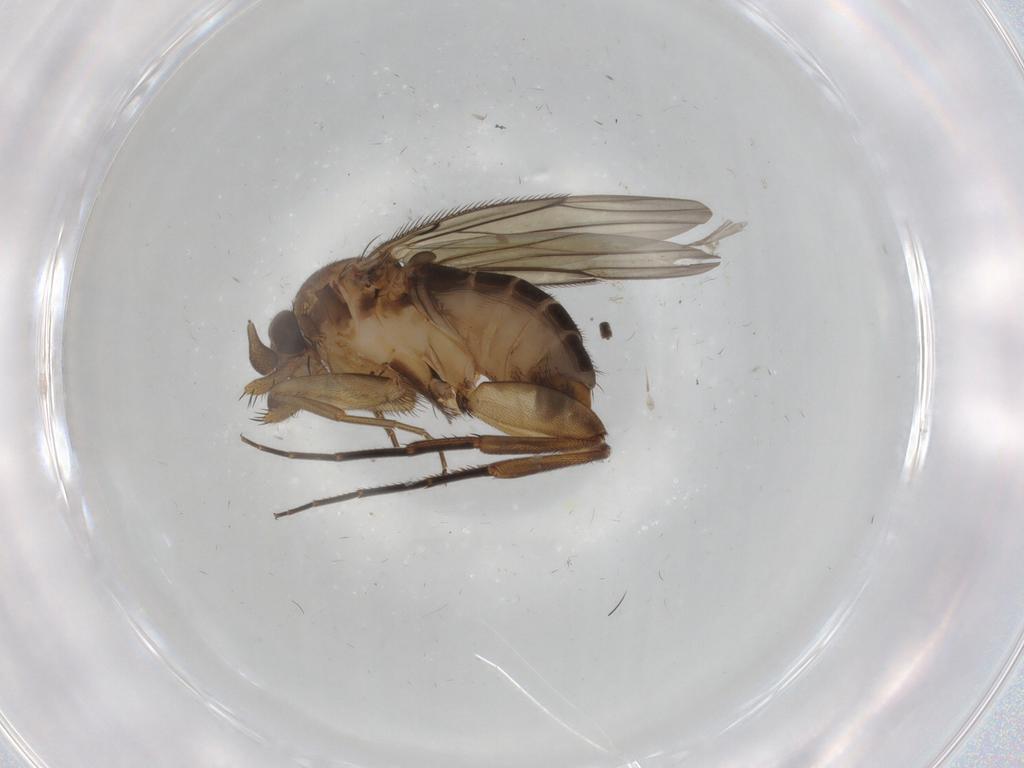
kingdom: Animalia
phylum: Arthropoda
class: Insecta
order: Diptera
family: Phoridae
